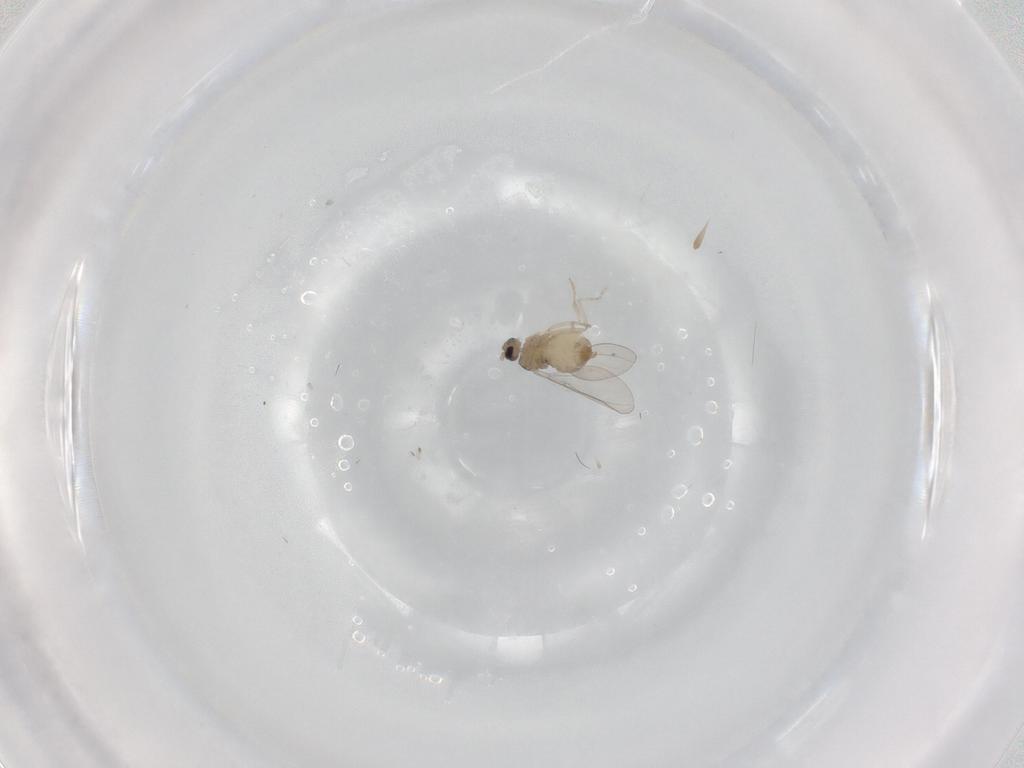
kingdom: Animalia
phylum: Arthropoda
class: Insecta
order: Diptera
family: Cecidomyiidae
